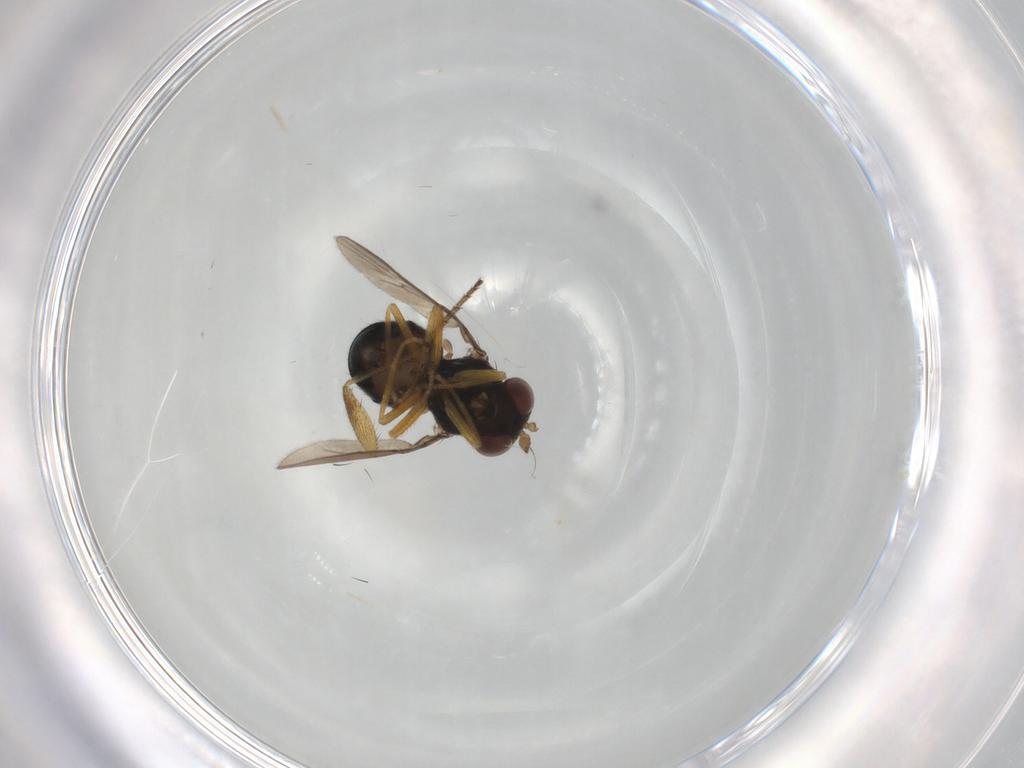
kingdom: Animalia
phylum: Arthropoda
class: Insecta
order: Diptera
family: Ephydridae
